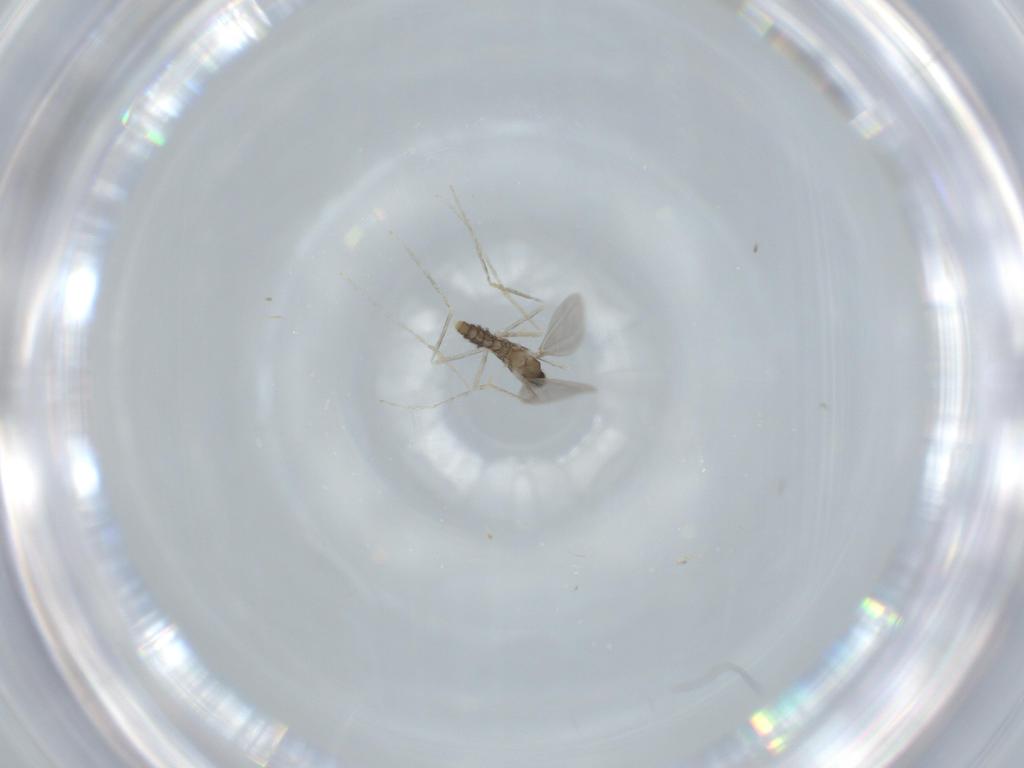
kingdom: Animalia
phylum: Arthropoda
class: Insecta
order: Diptera
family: Cecidomyiidae
